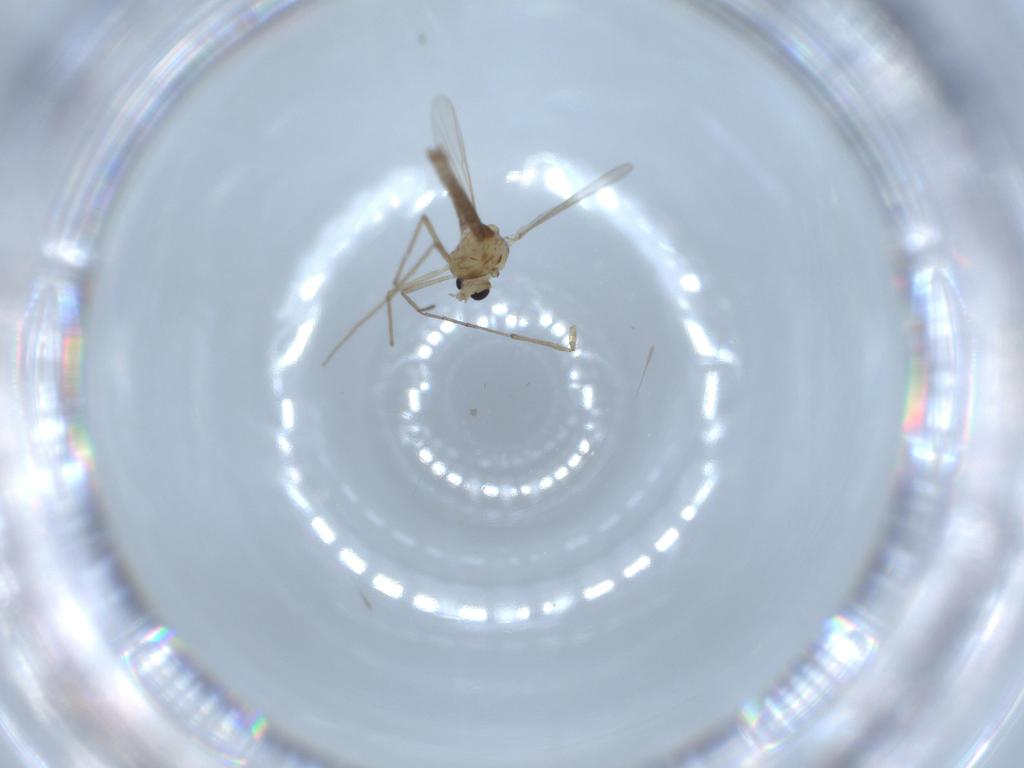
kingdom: Animalia
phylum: Arthropoda
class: Insecta
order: Diptera
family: Chironomidae
